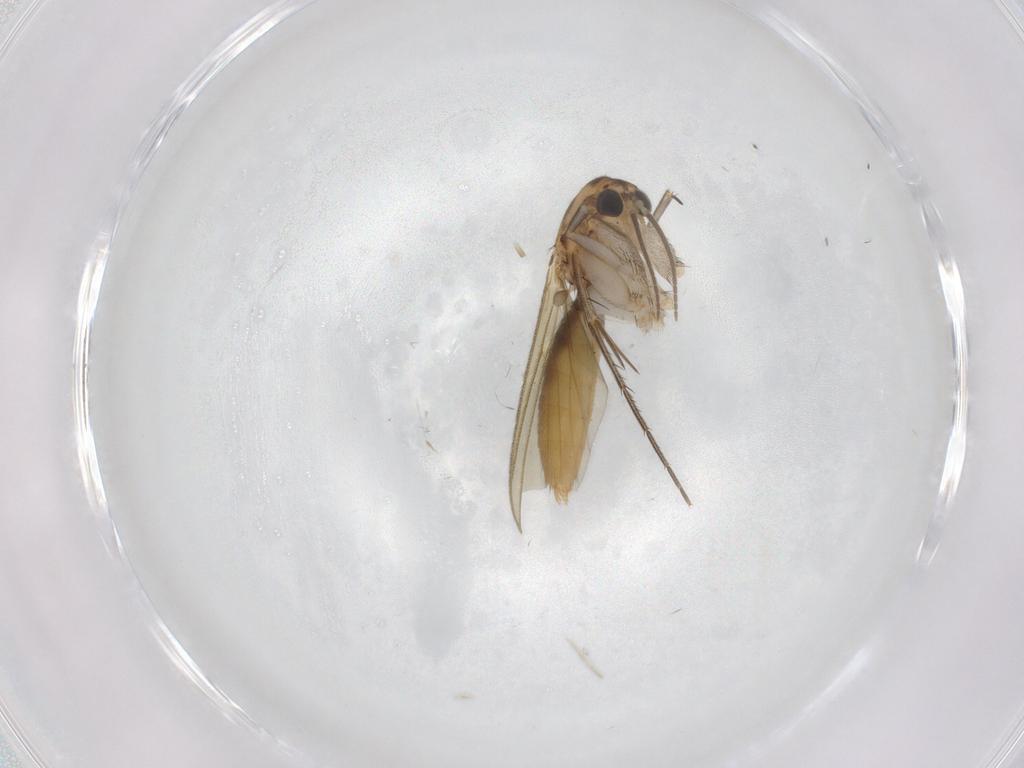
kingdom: Animalia
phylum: Arthropoda
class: Insecta
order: Diptera
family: Mycetophilidae
